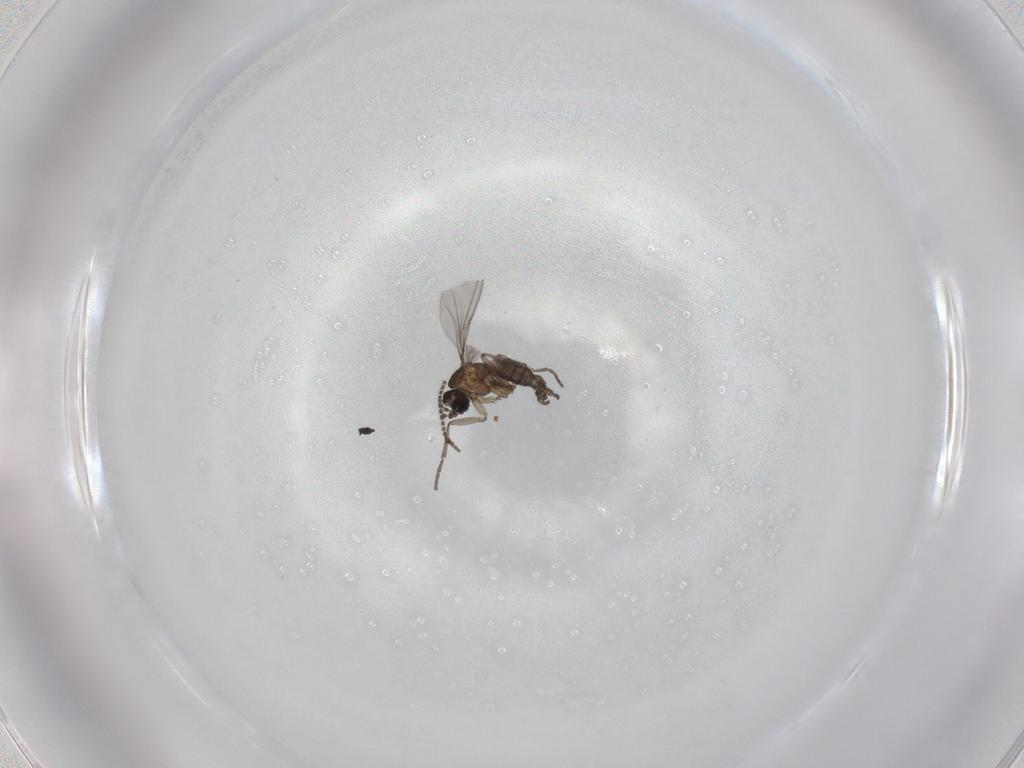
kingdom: Animalia
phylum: Arthropoda
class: Insecta
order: Diptera
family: Cecidomyiidae
